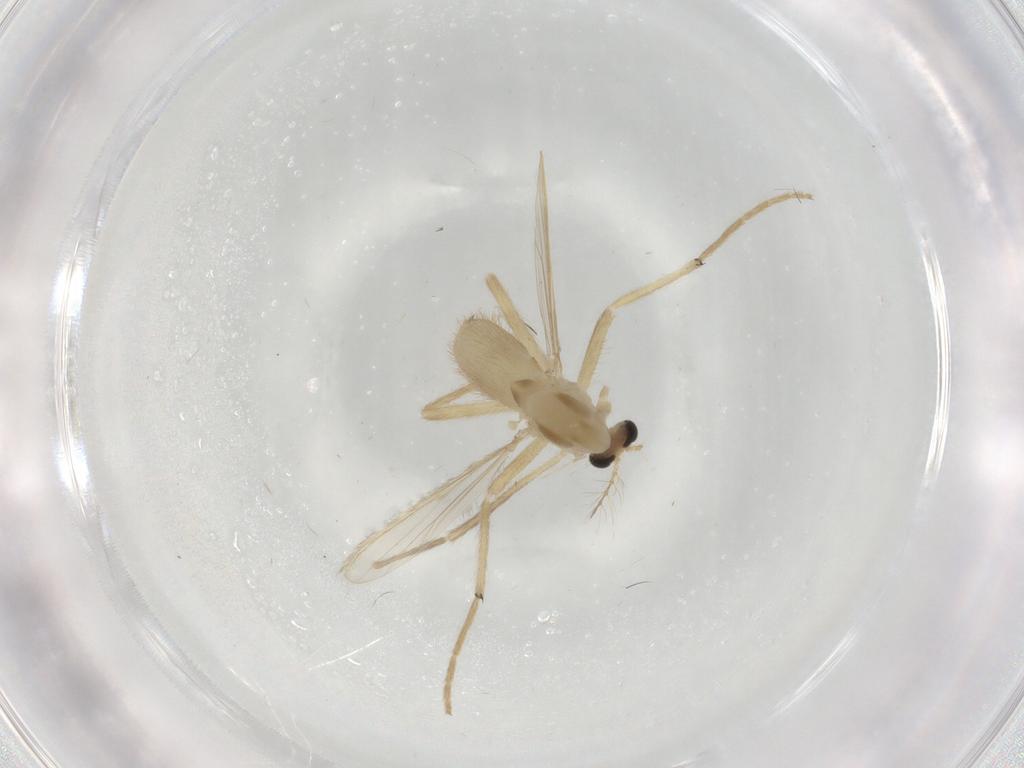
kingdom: Animalia
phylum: Arthropoda
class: Insecta
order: Diptera
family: Chironomidae
